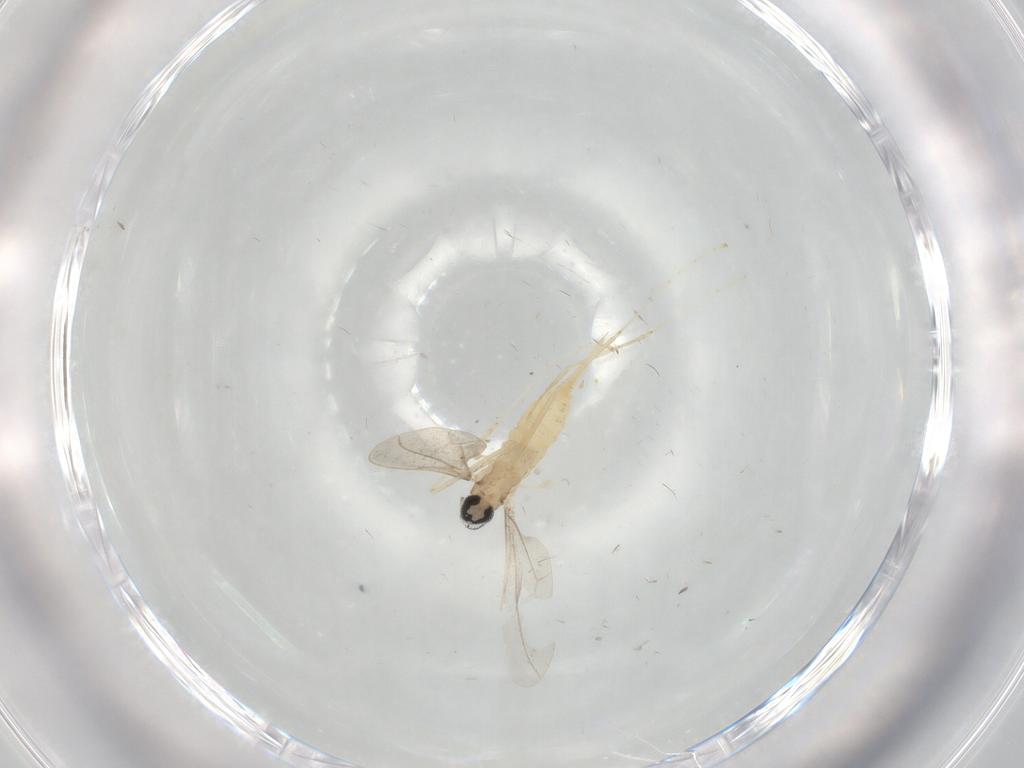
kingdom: Animalia
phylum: Arthropoda
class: Insecta
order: Diptera
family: Cecidomyiidae
